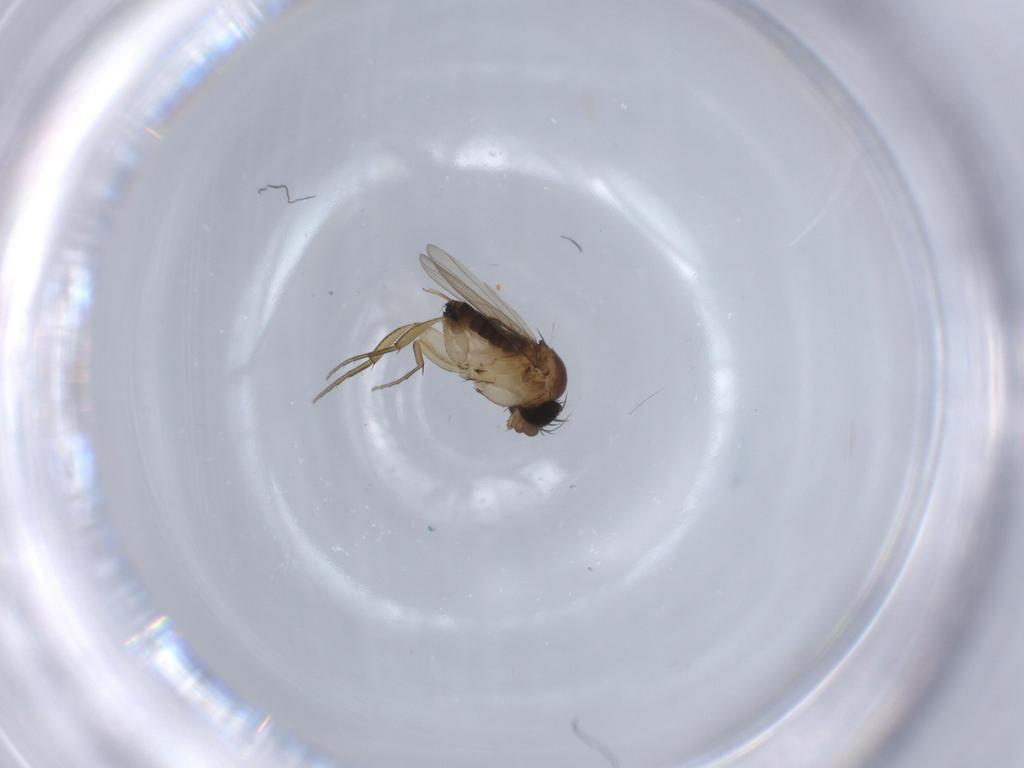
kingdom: Animalia
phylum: Arthropoda
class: Insecta
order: Diptera
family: Phoridae
